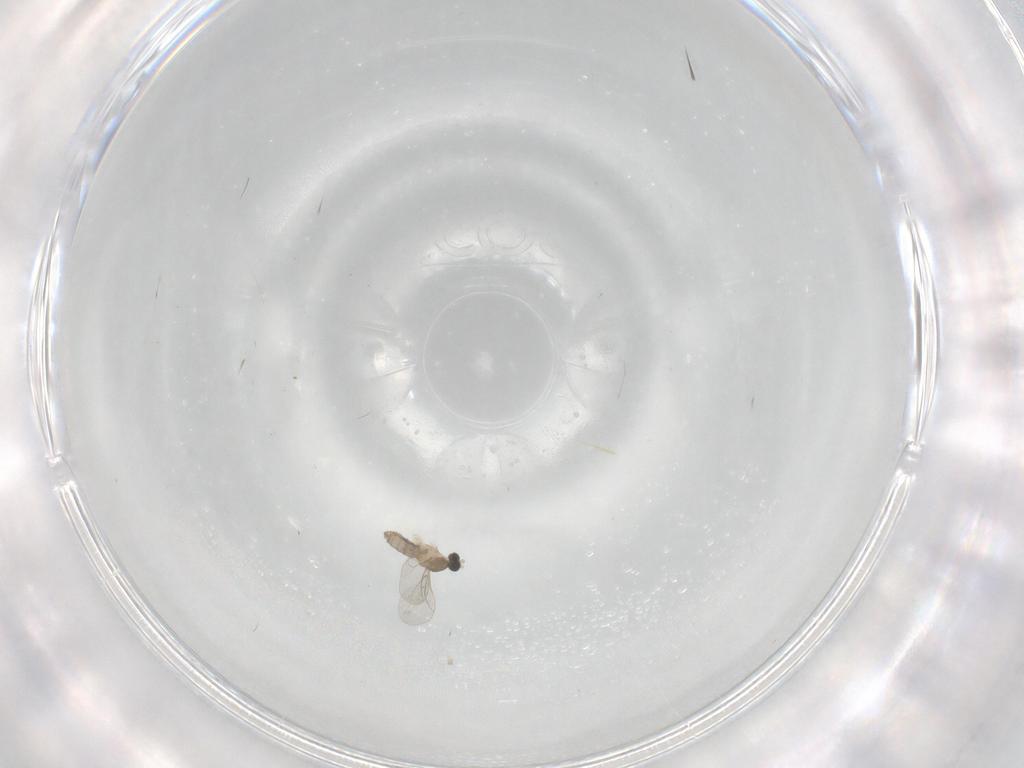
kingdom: Animalia
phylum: Arthropoda
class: Insecta
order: Diptera
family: Cecidomyiidae
